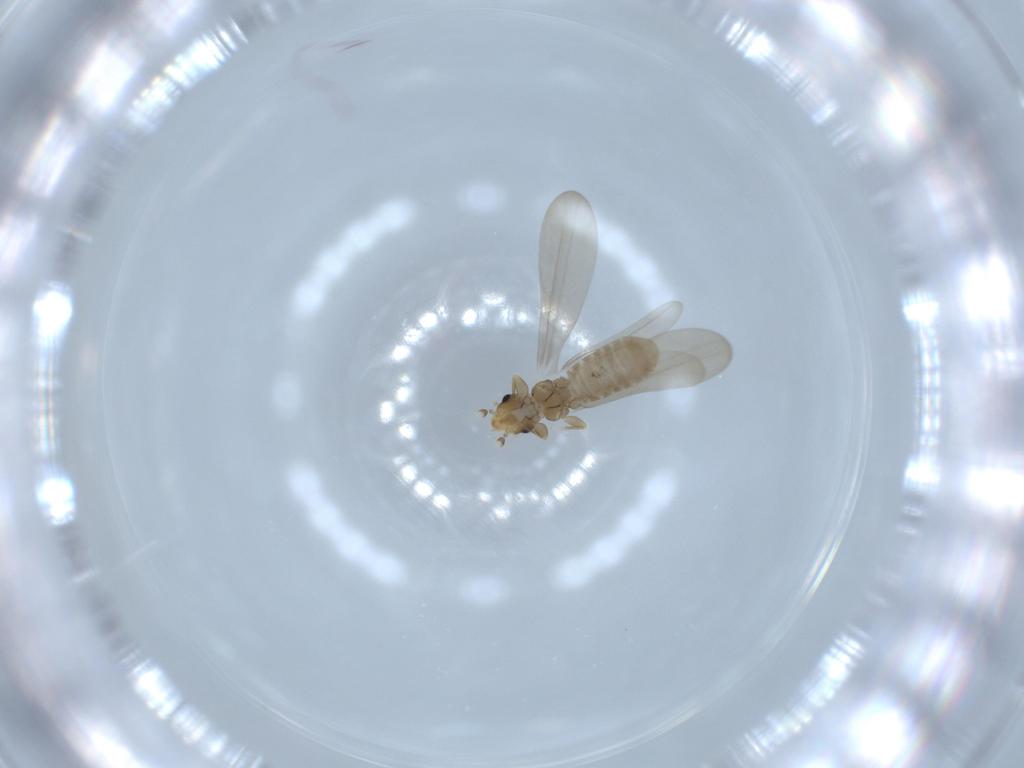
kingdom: Animalia
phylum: Arthropoda
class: Insecta
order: Psocodea
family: Liposcelididae
